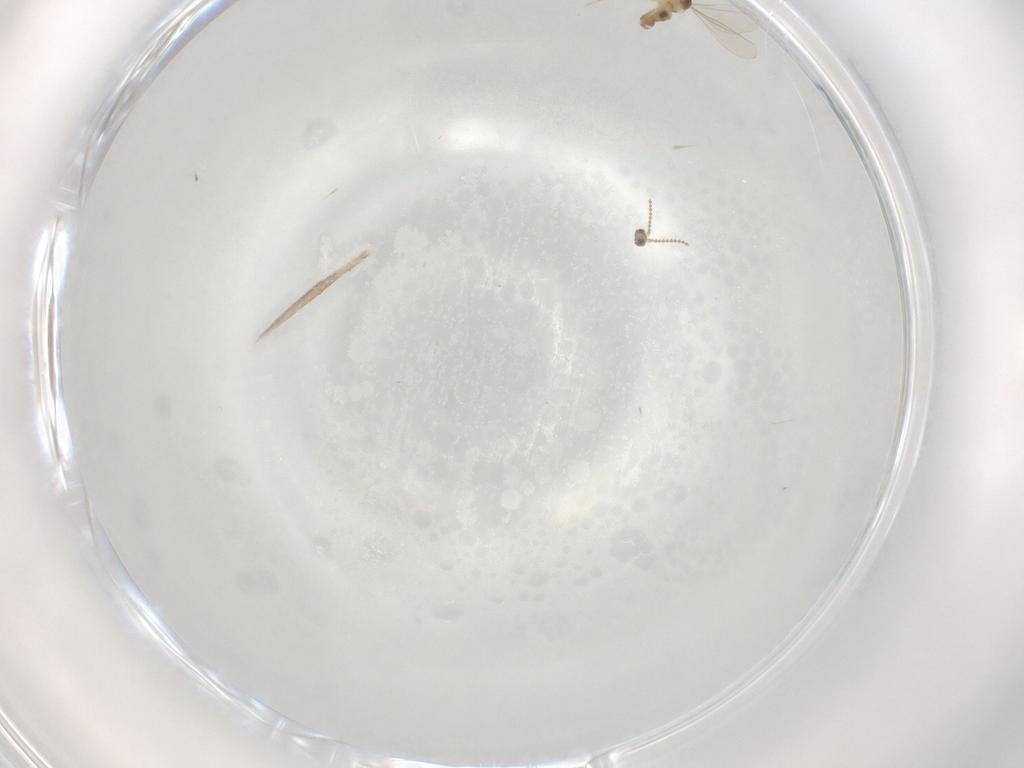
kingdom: Animalia
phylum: Arthropoda
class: Insecta
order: Diptera
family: Cecidomyiidae
